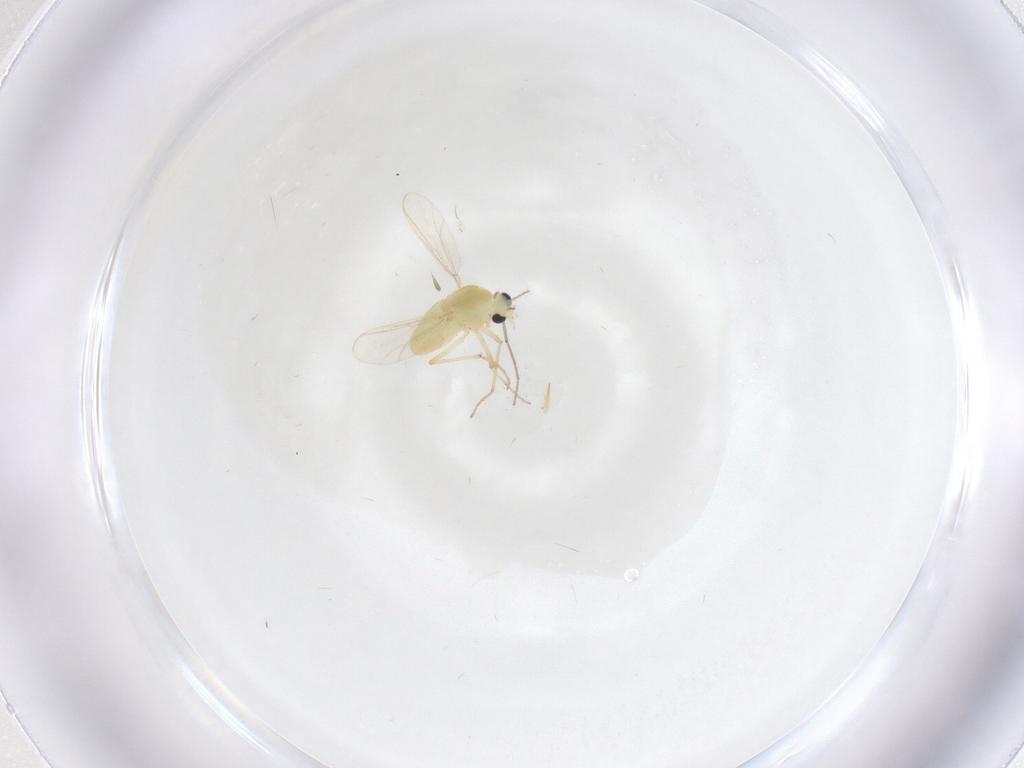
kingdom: Animalia
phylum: Arthropoda
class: Insecta
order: Diptera
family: Chironomidae
